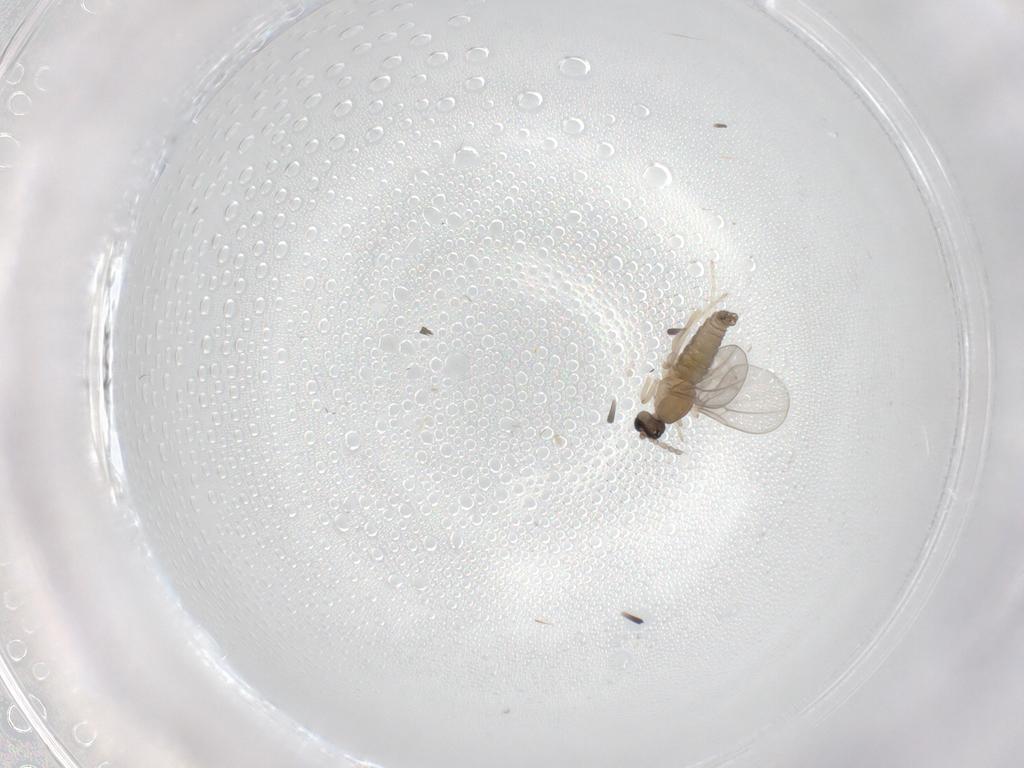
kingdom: Animalia
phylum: Arthropoda
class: Insecta
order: Diptera
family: Cecidomyiidae
